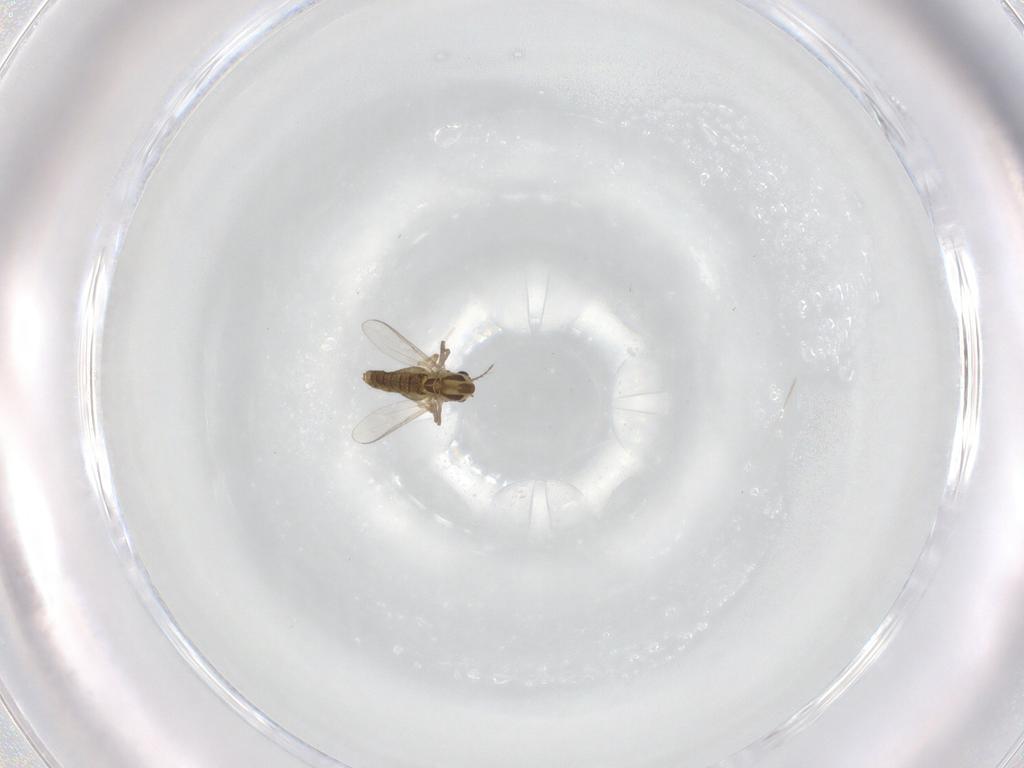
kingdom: Animalia
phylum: Arthropoda
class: Insecta
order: Diptera
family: Chironomidae
